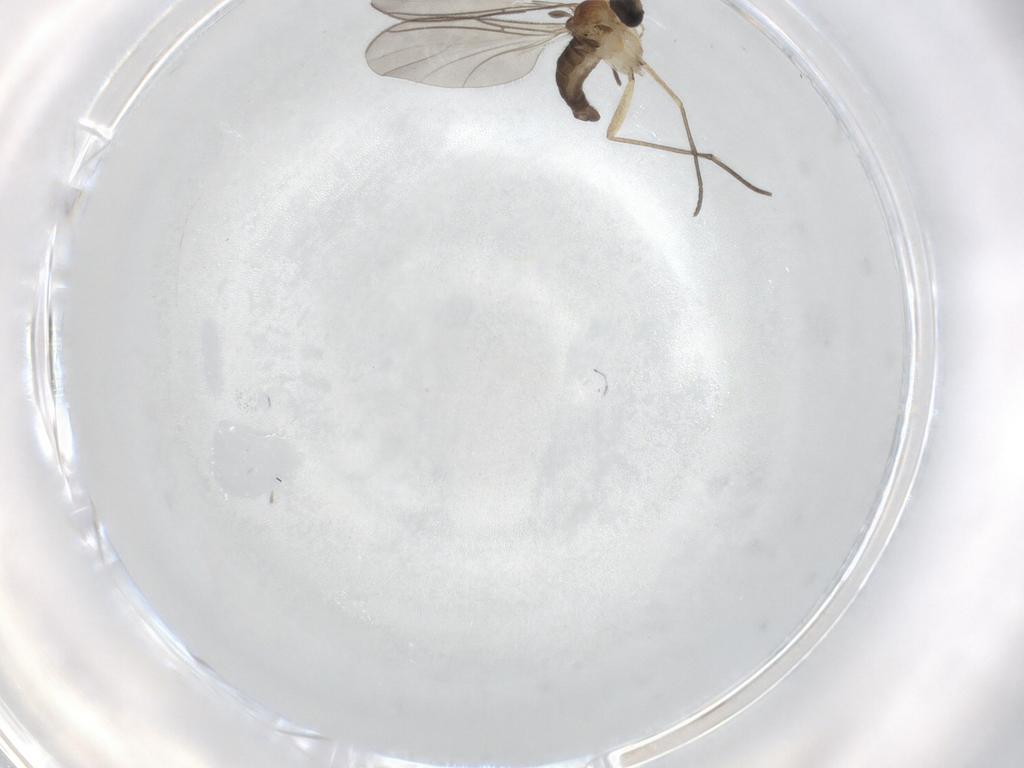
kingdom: Animalia
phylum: Arthropoda
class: Insecta
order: Diptera
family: Sciaridae
